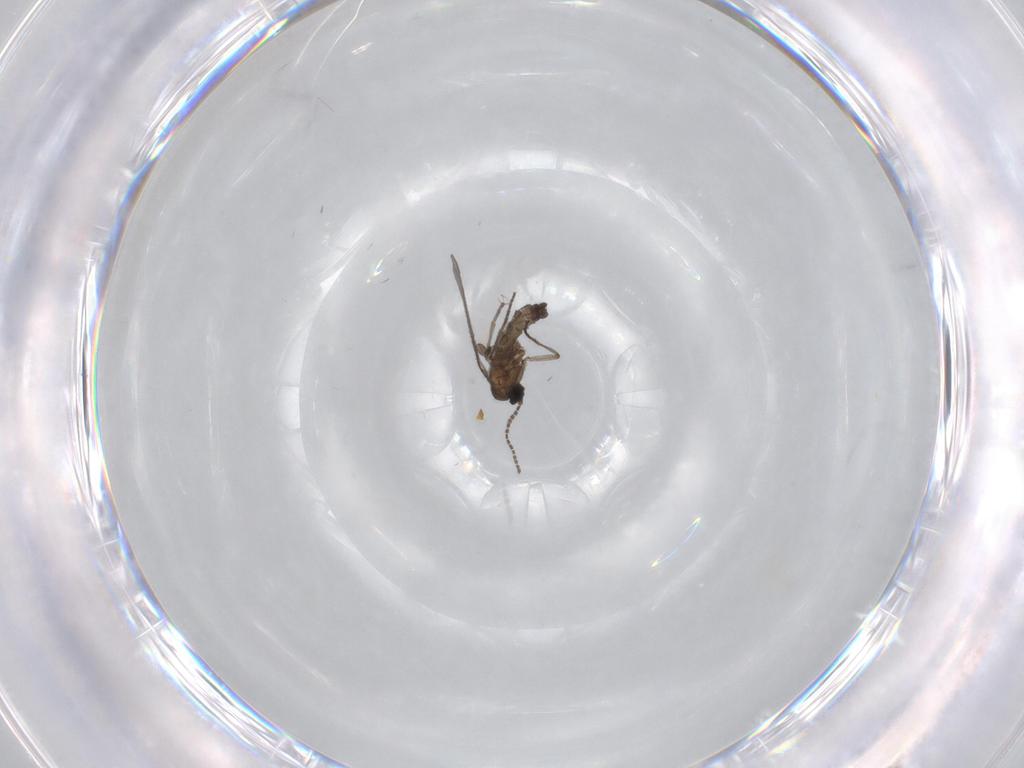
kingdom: Animalia
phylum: Arthropoda
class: Insecta
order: Diptera
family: Sciaridae
